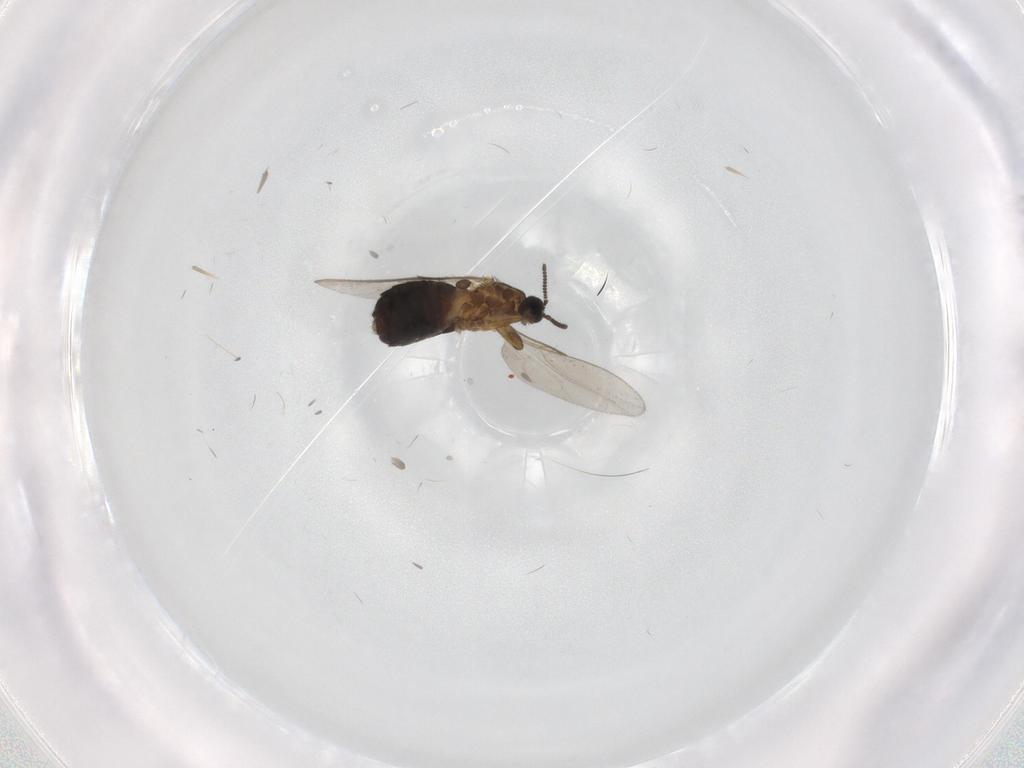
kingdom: Animalia
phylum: Arthropoda
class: Insecta
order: Diptera
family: Scatopsidae
